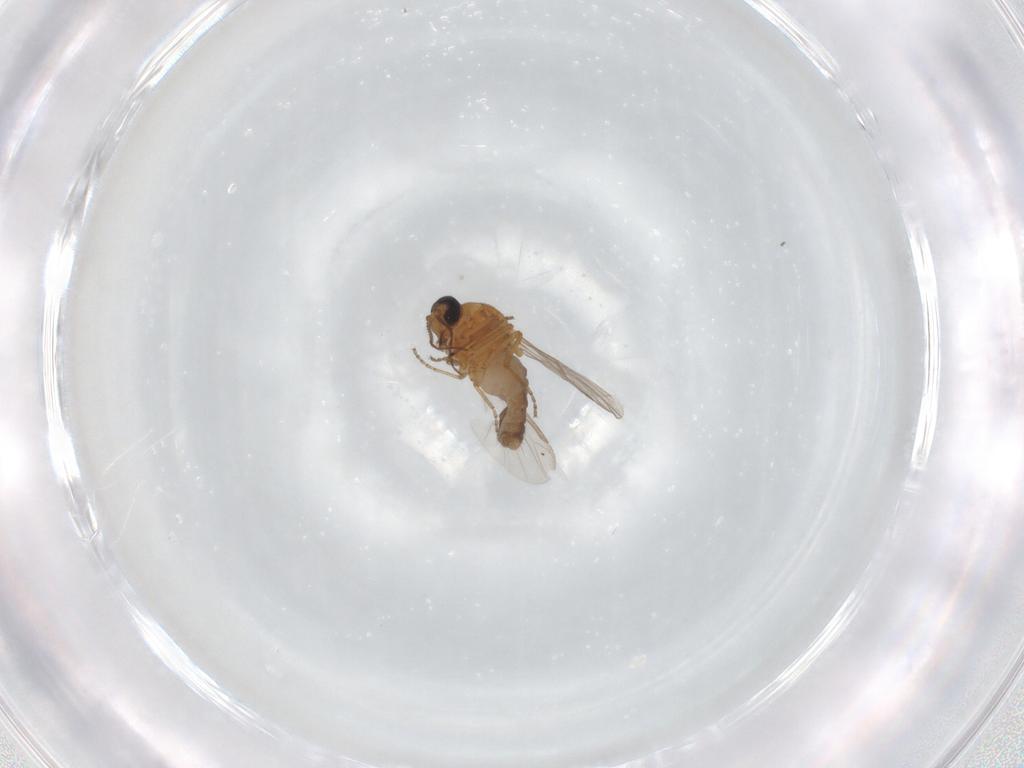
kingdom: Animalia
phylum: Arthropoda
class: Insecta
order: Diptera
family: Ceratopogonidae
